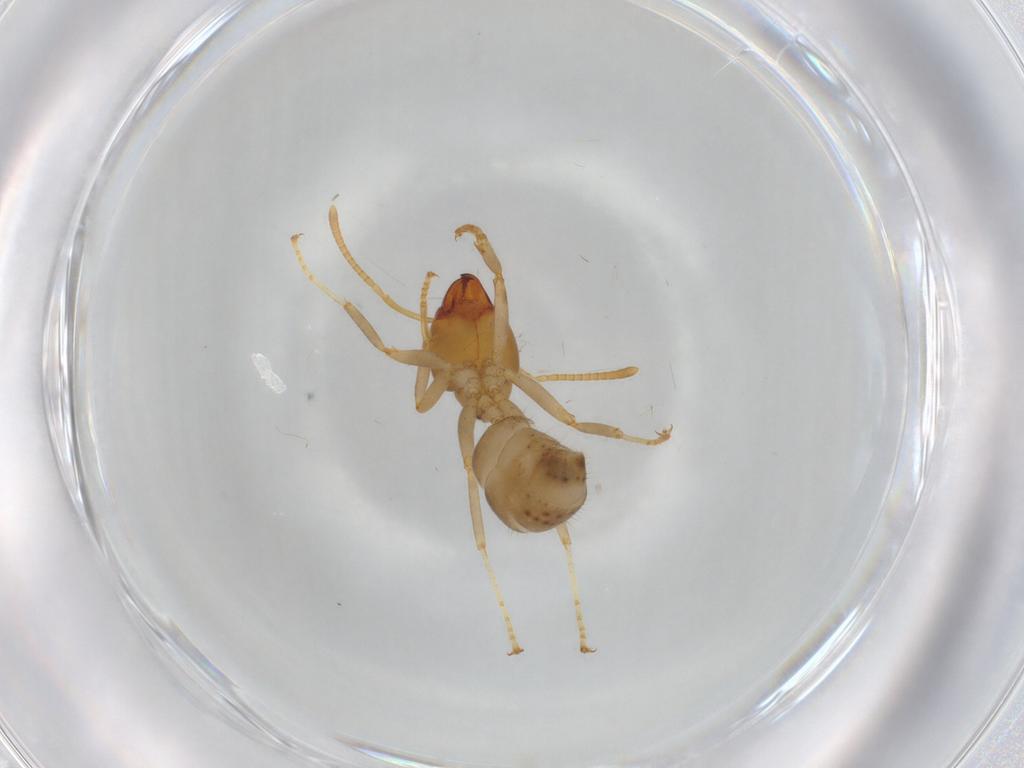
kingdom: Animalia
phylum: Arthropoda
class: Insecta
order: Hymenoptera
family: Formicidae
